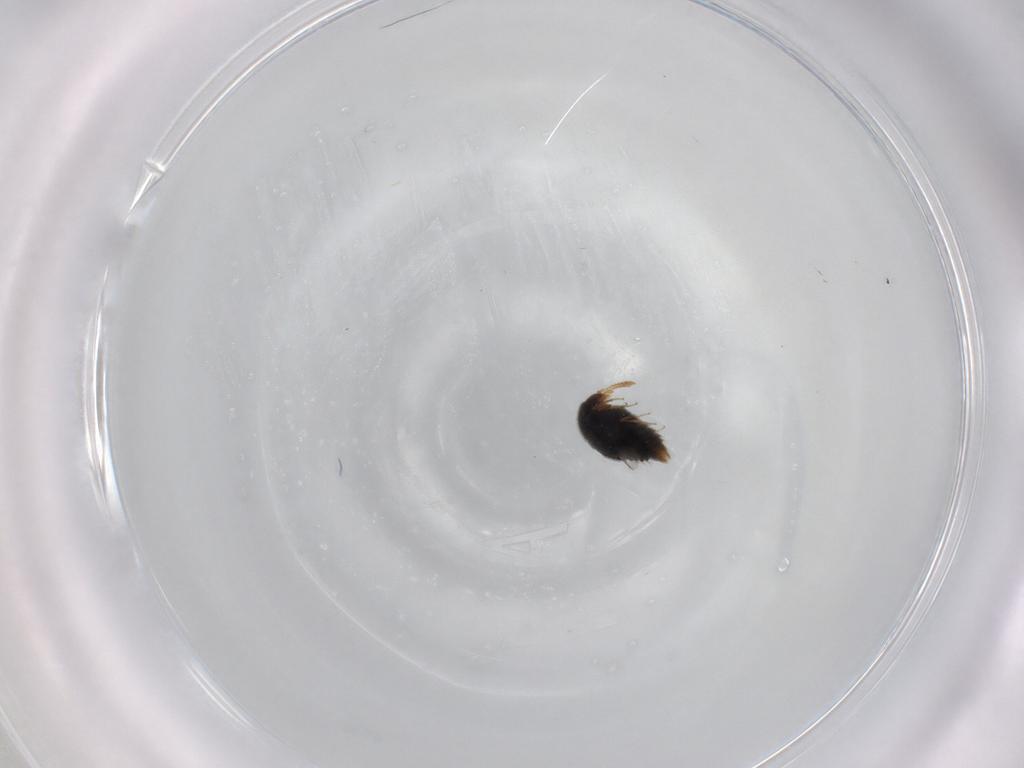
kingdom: Animalia
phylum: Arthropoda
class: Insecta
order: Coleoptera
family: Staphylinidae
